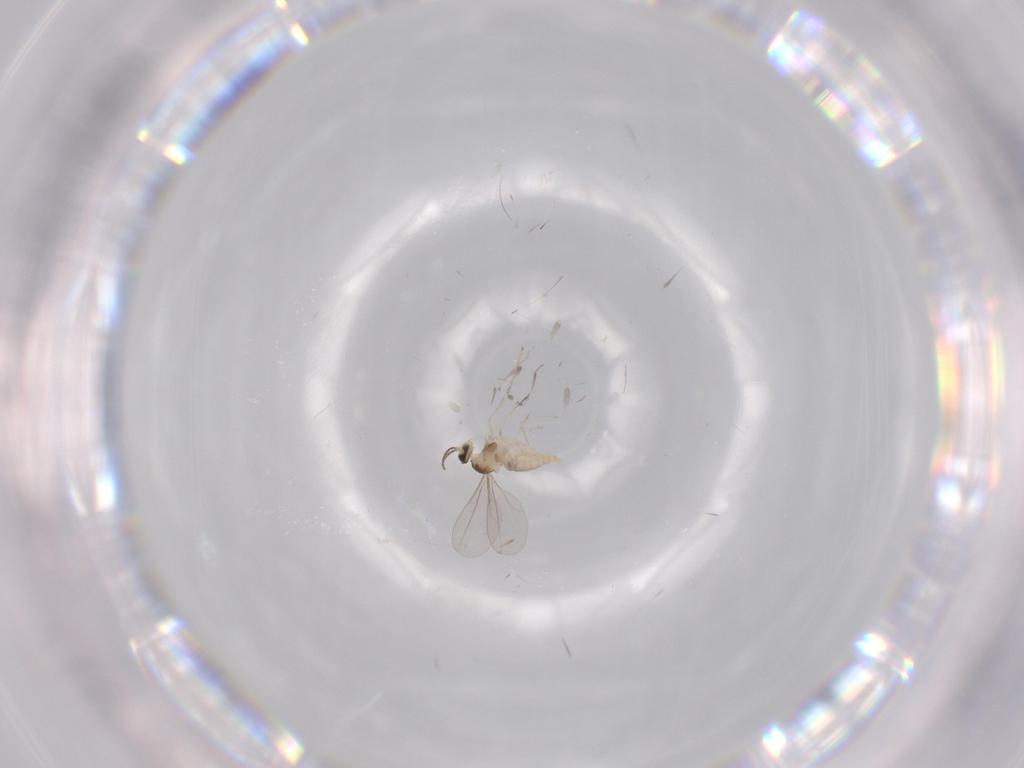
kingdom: Animalia
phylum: Arthropoda
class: Insecta
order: Diptera
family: Cecidomyiidae
